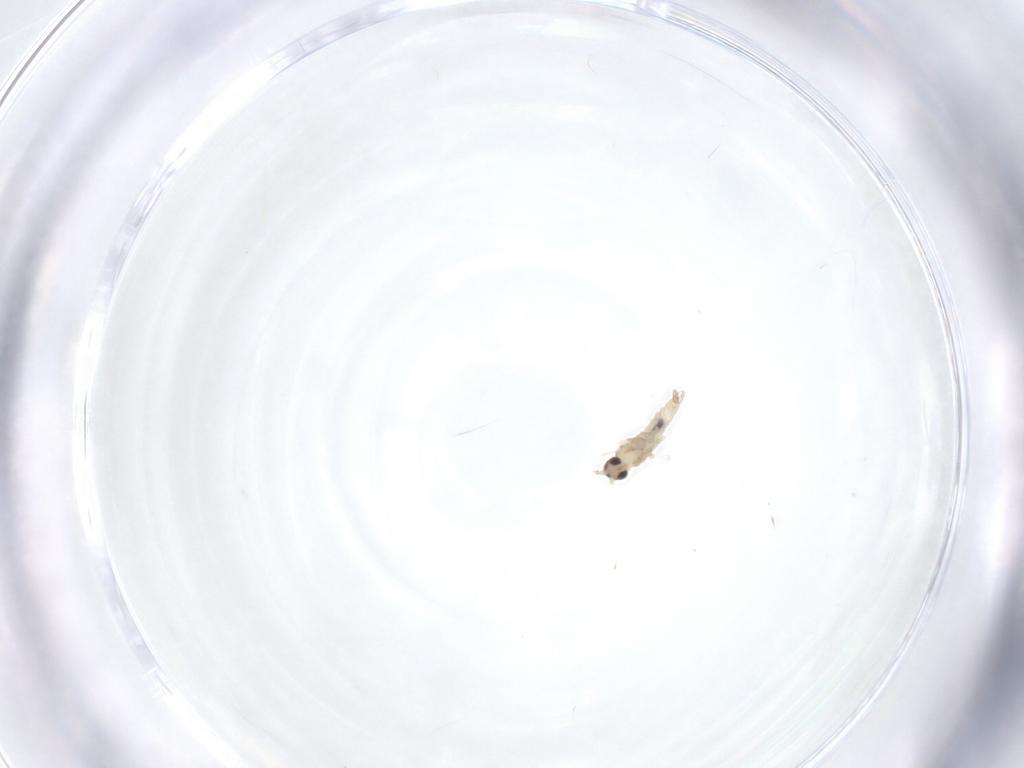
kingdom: Animalia
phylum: Arthropoda
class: Insecta
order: Diptera
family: Cecidomyiidae
